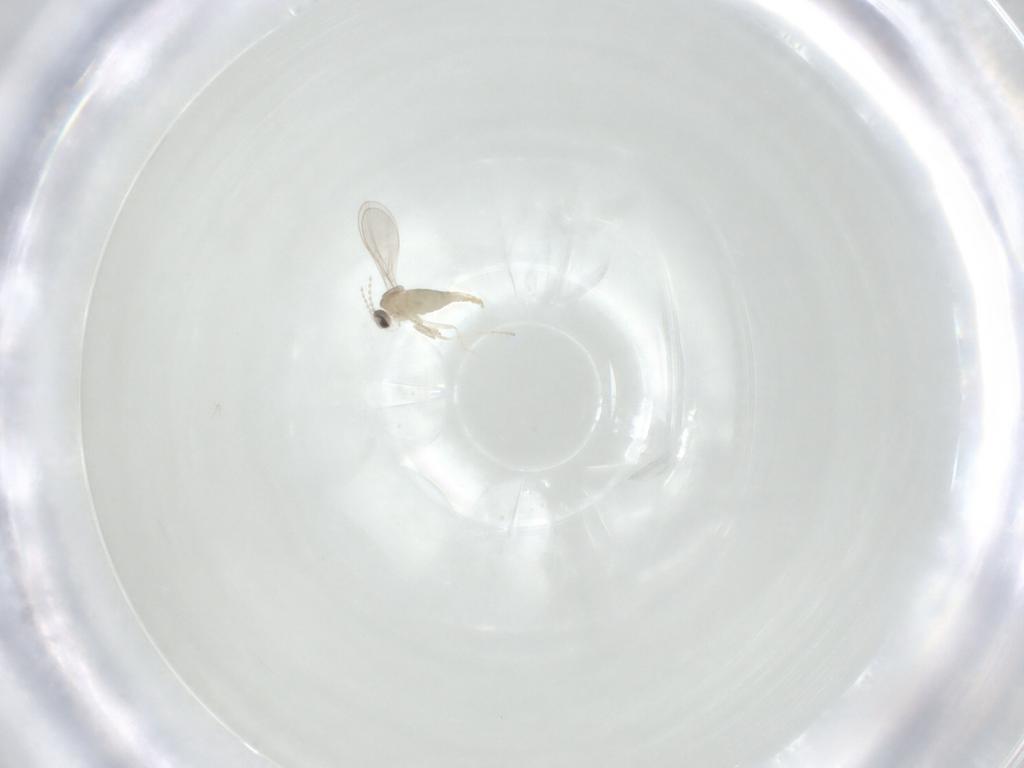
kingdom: Animalia
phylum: Arthropoda
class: Insecta
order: Diptera
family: Cecidomyiidae
